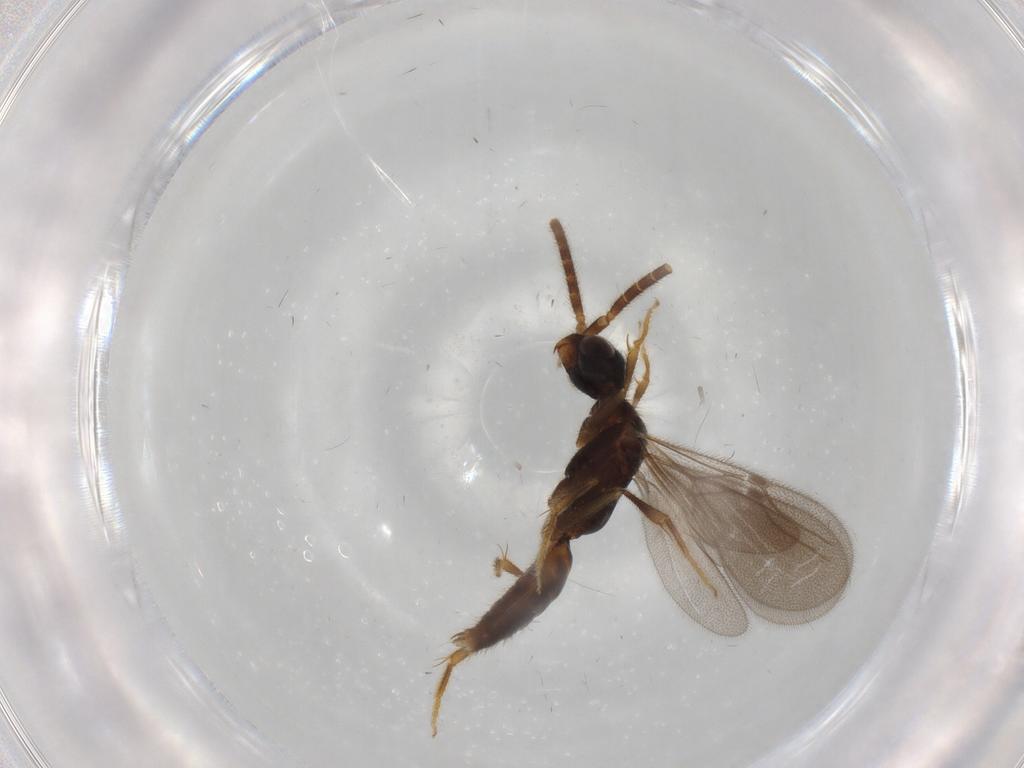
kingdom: Animalia
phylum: Arthropoda
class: Insecta
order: Hymenoptera
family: Bethylidae
